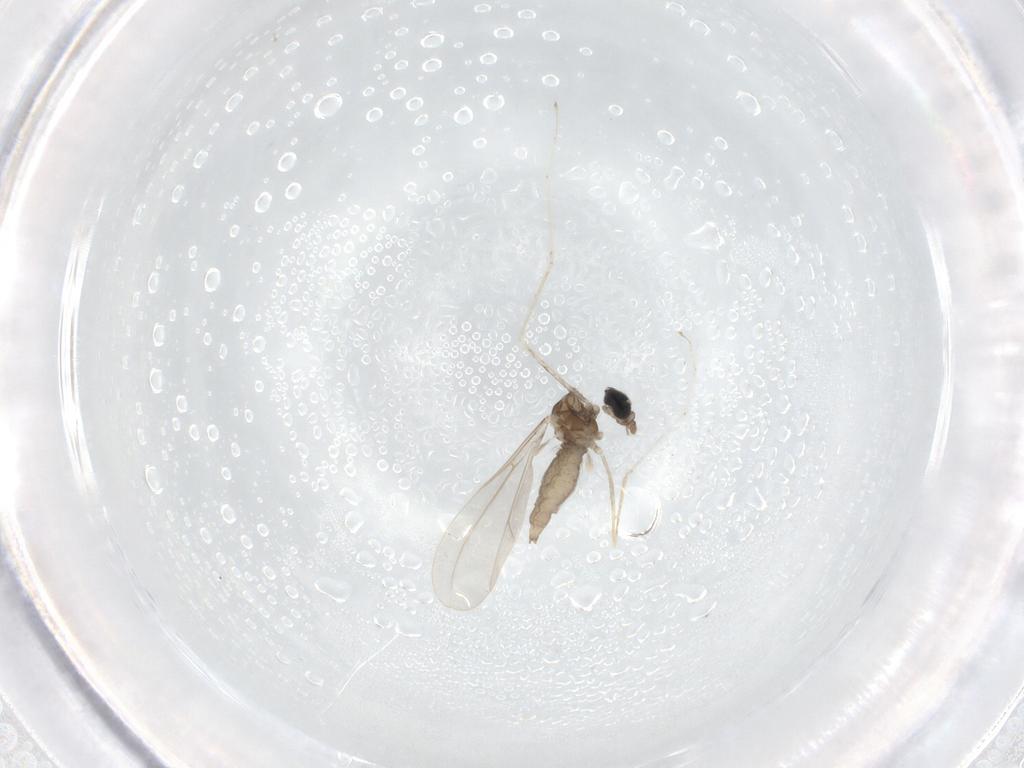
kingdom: Animalia
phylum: Arthropoda
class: Insecta
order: Diptera
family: Cecidomyiidae
